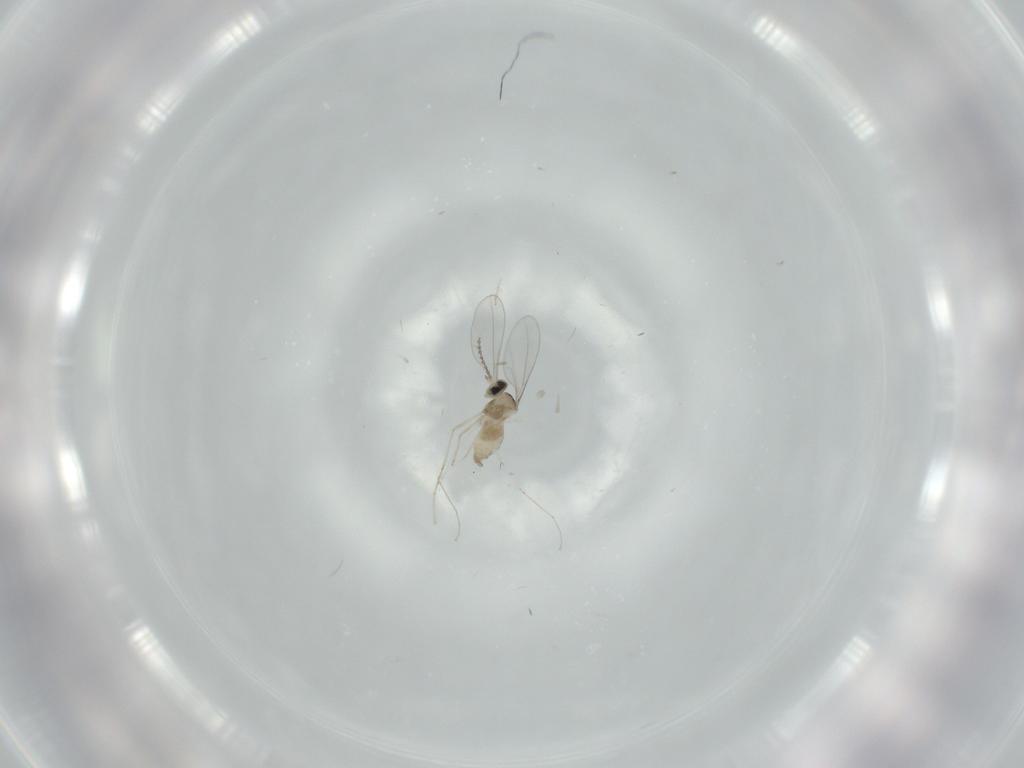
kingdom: Animalia
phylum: Arthropoda
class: Insecta
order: Diptera
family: Cecidomyiidae
